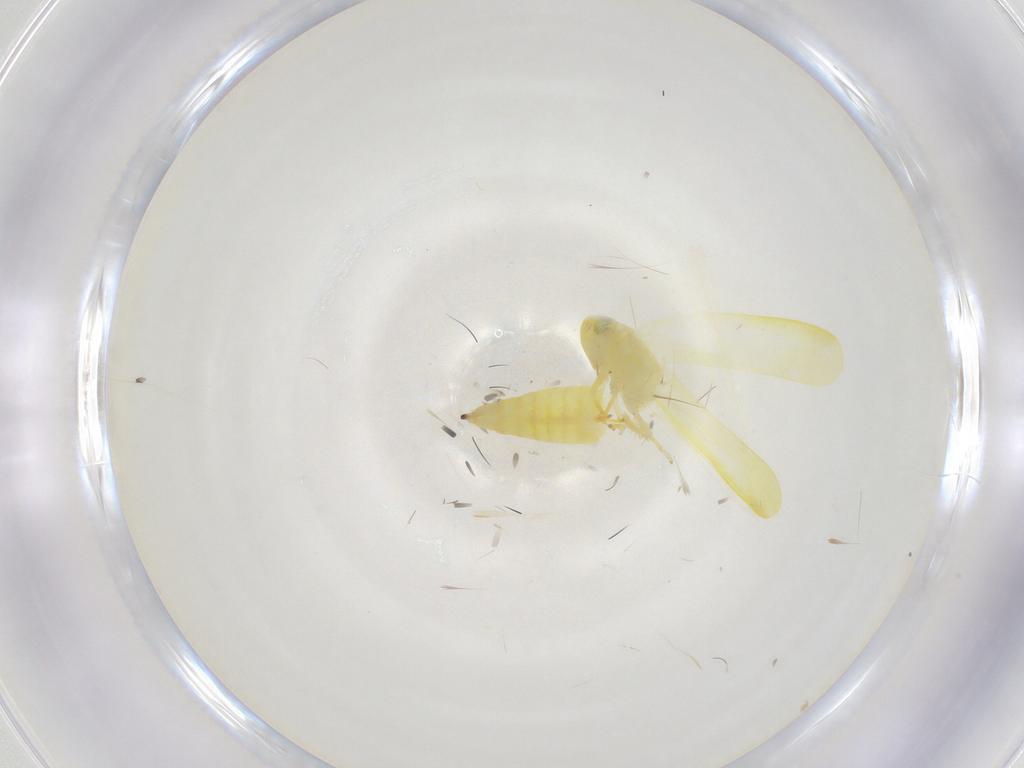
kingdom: Animalia
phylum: Arthropoda
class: Insecta
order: Hemiptera
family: Cicadellidae
